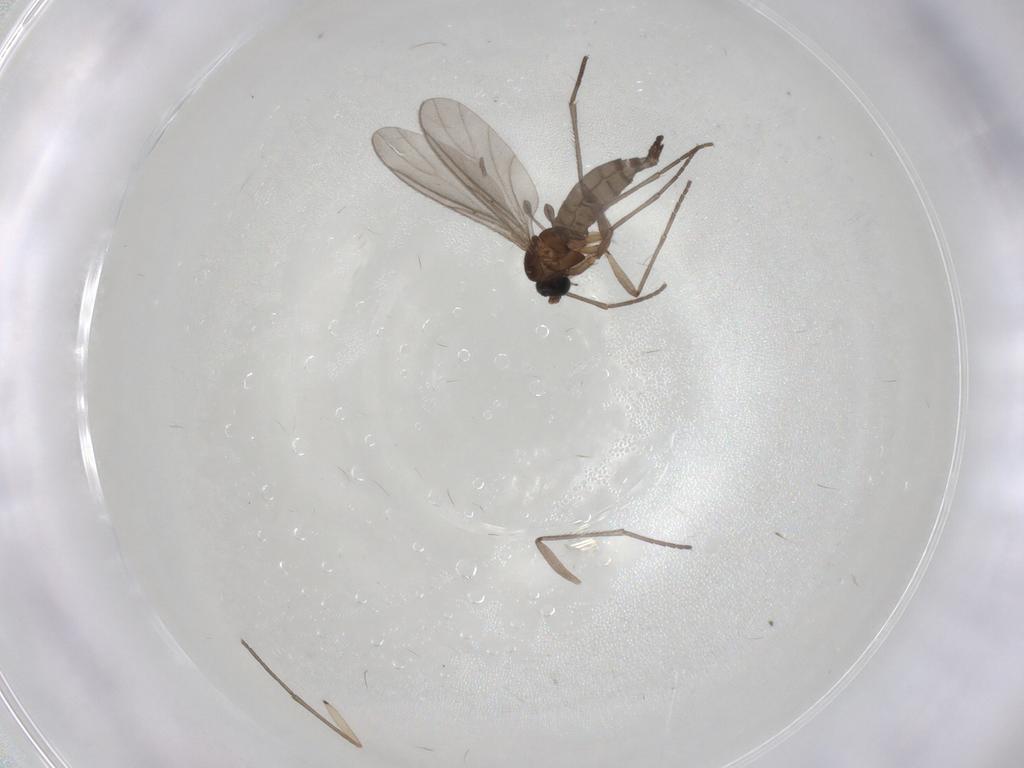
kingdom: Animalia
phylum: Arthropoda
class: Insecta
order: Diptera
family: Sciaridae
